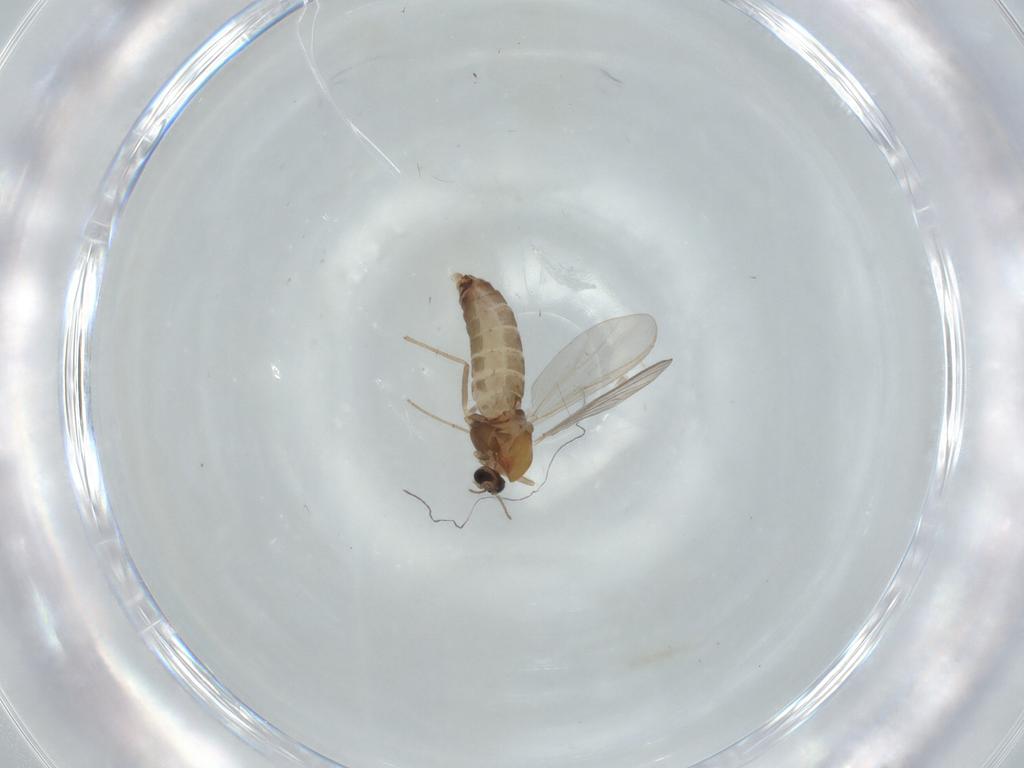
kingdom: Animalia
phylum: Arthropoda
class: Insecta
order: Diptera
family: Chironomidae
